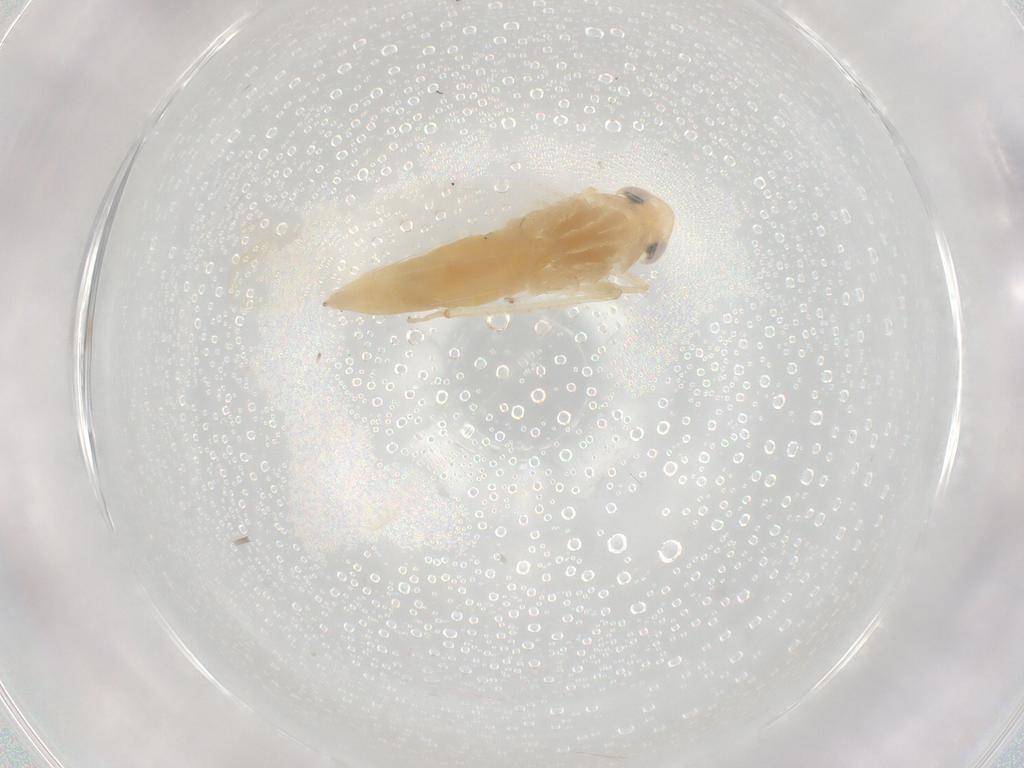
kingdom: Animalia
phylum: Arthropoda
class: Insecta
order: Hemiptera
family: Cicadellidae
